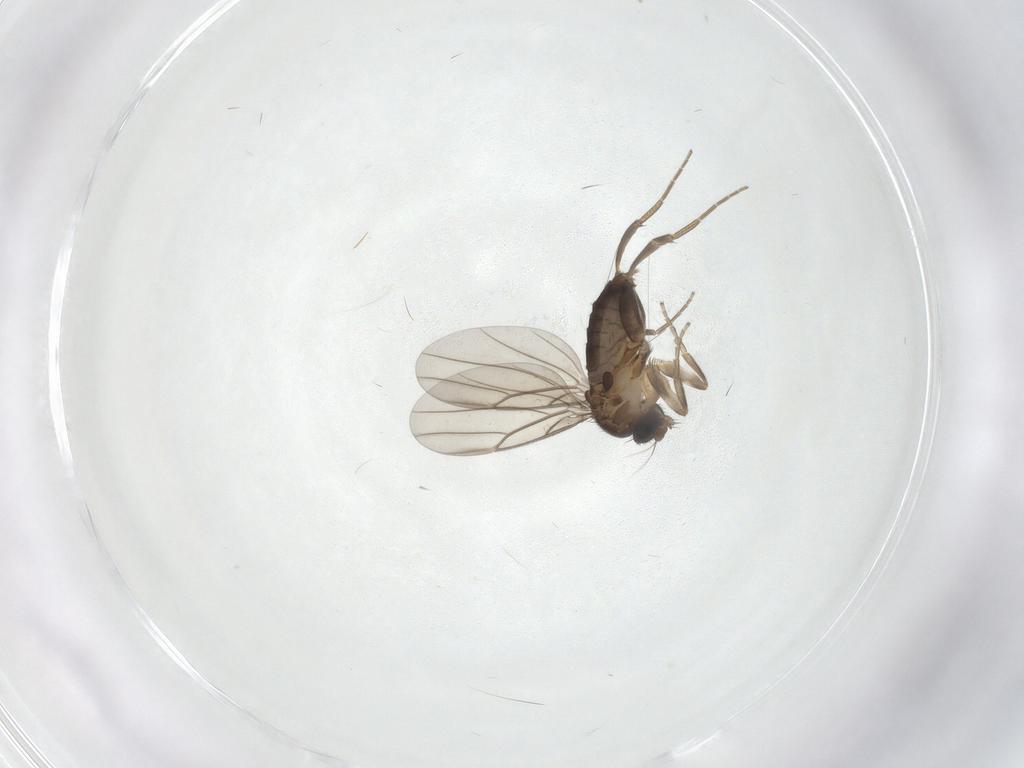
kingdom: Animalia
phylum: Arthropoda
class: Insecta
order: Diptera
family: Phoridae
